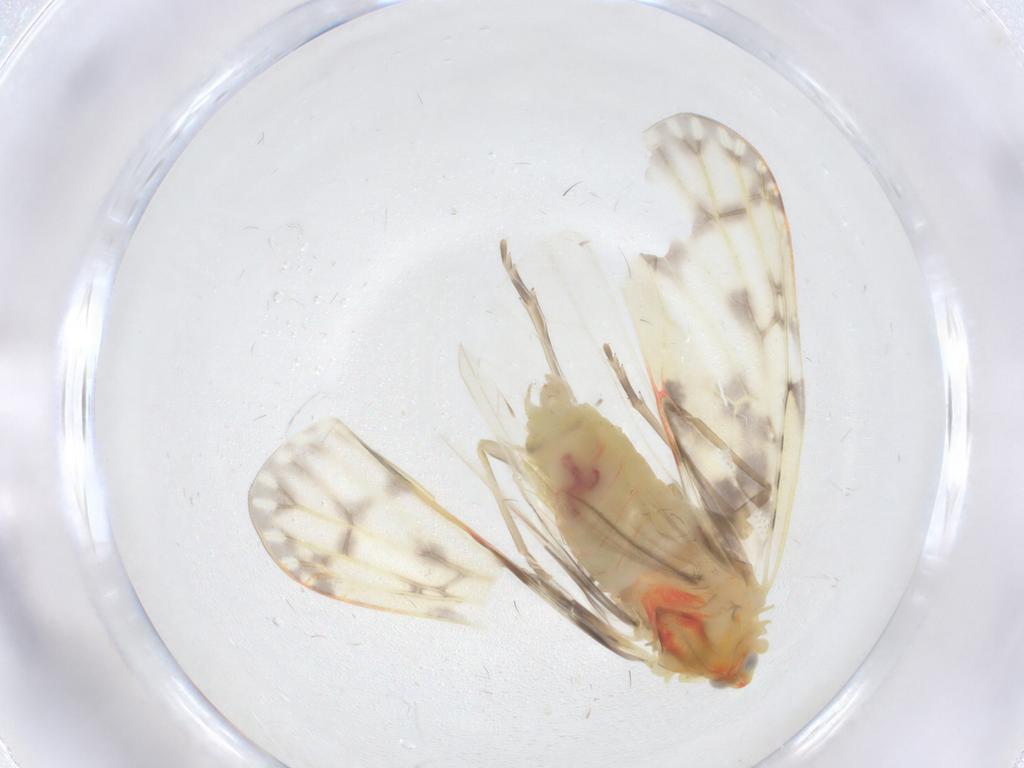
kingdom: Animalia
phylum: Arthropoda
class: Insecta
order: Hemiptera
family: Derbidae
